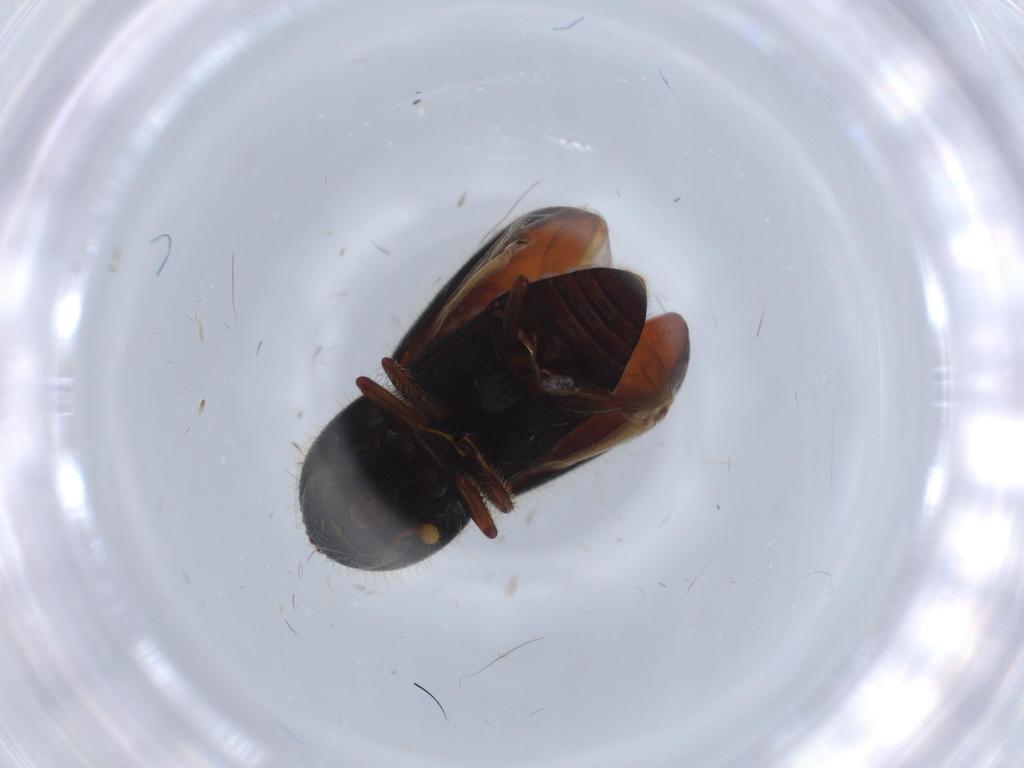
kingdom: Animalia
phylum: Arthropoda
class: Insecta
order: Coleoptera
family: Curculionidae
